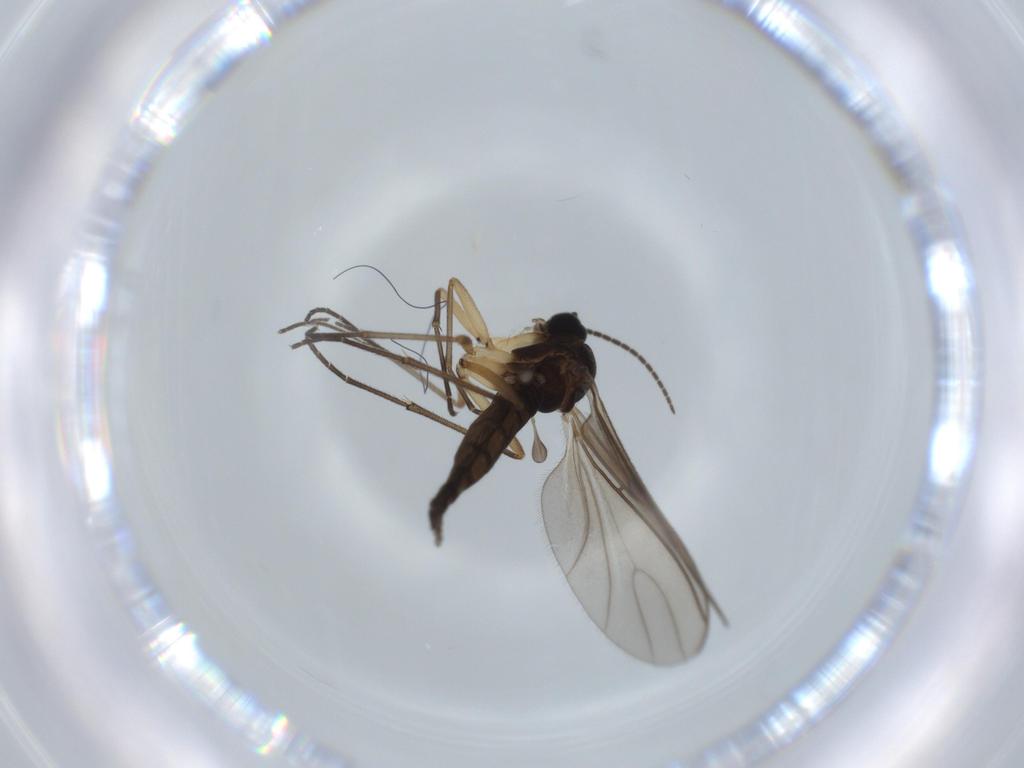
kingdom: Animalia
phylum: Arthropoda
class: Insecta
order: Diptera
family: Sciaridae
